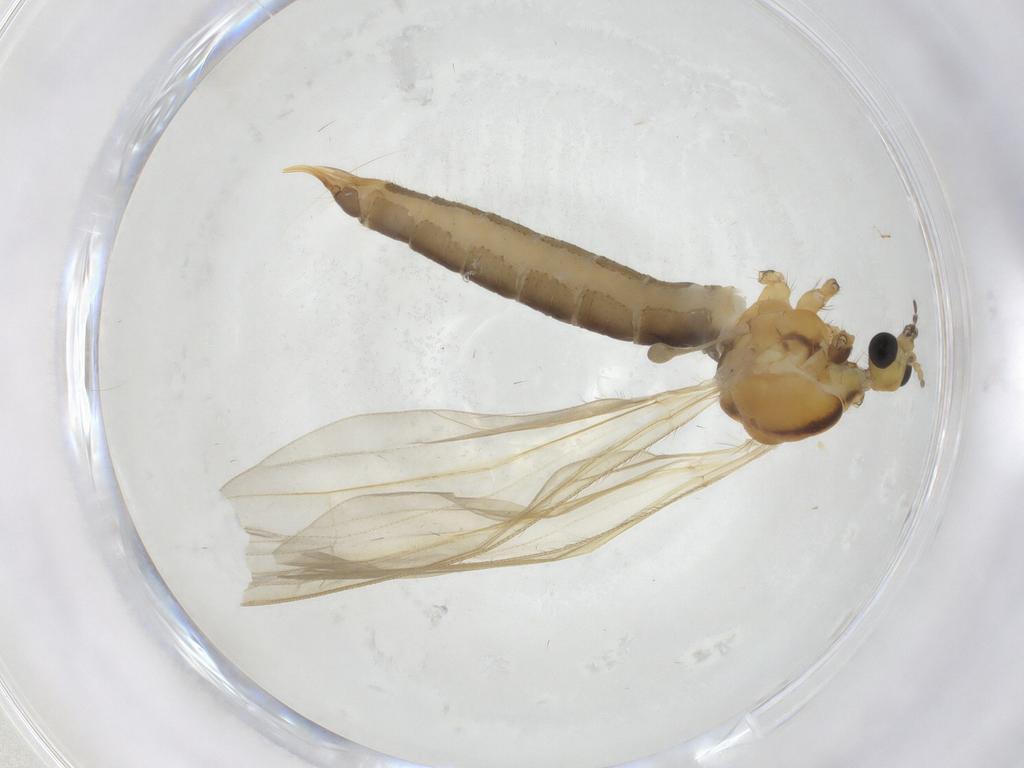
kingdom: Animalia
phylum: Arthropoda
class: Insecta
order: Diptera
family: Limoniidae
